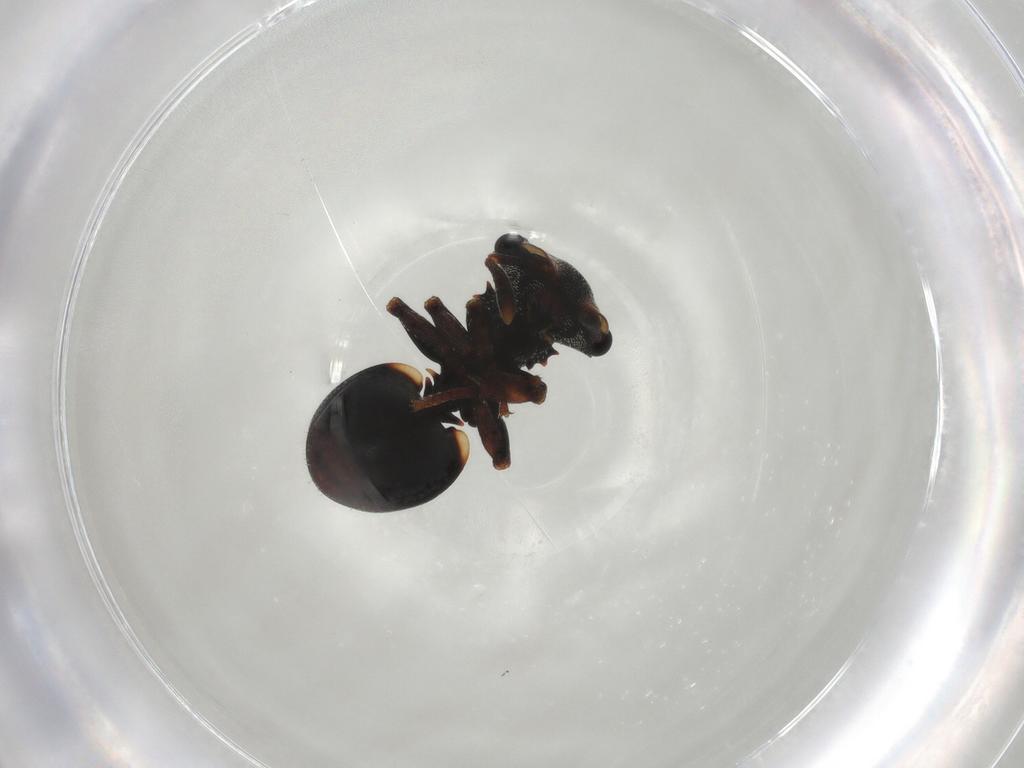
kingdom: Animalia
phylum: Arthropoda
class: Insecta
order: Hymenoptera
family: Formicidae
